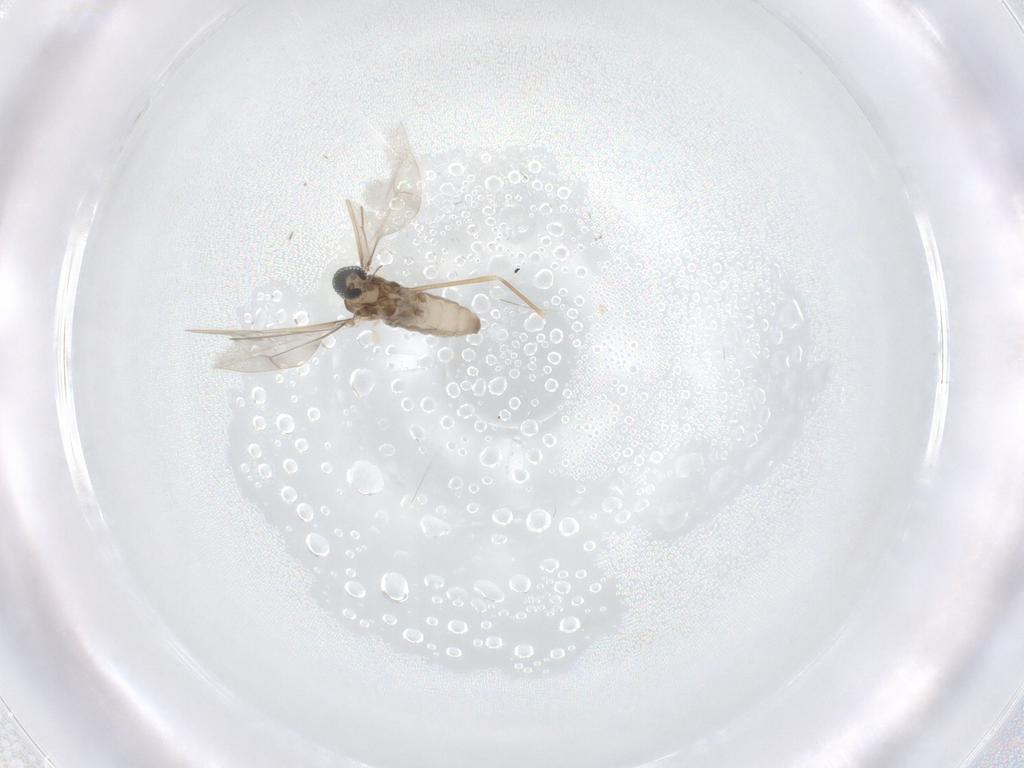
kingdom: Animalia
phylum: Arthropoda
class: Insecta
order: Diptera
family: Cecidomyiidae
